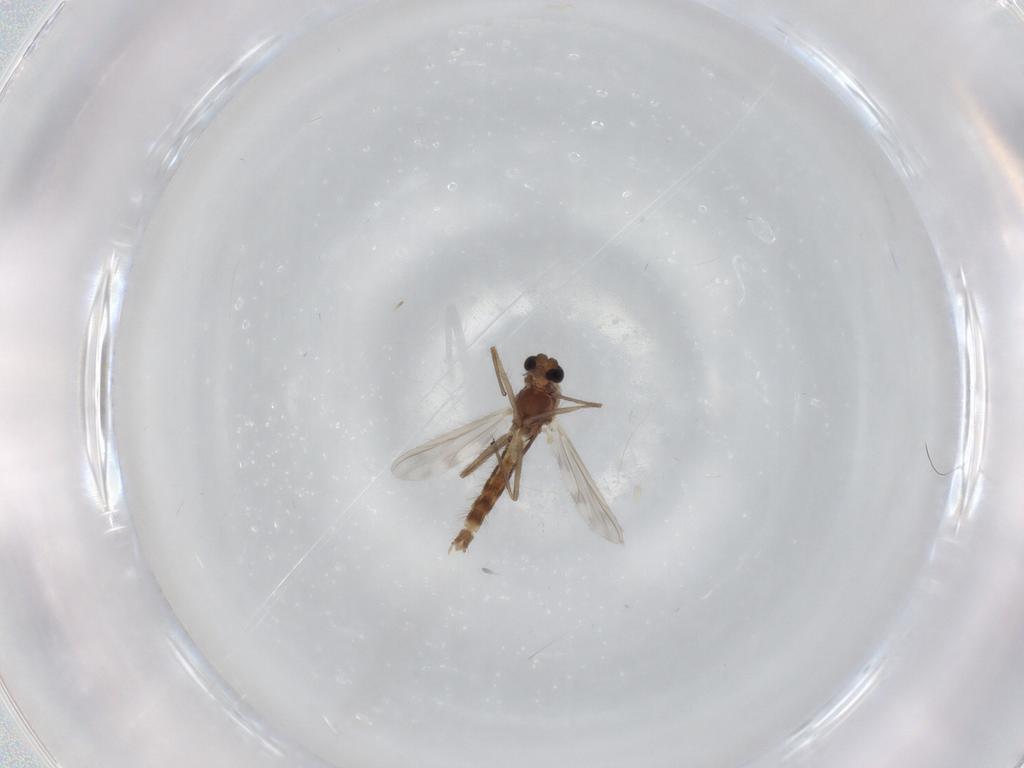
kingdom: Animalia
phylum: Arthropoda
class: Insecta
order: Diptera
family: Chironomidae
